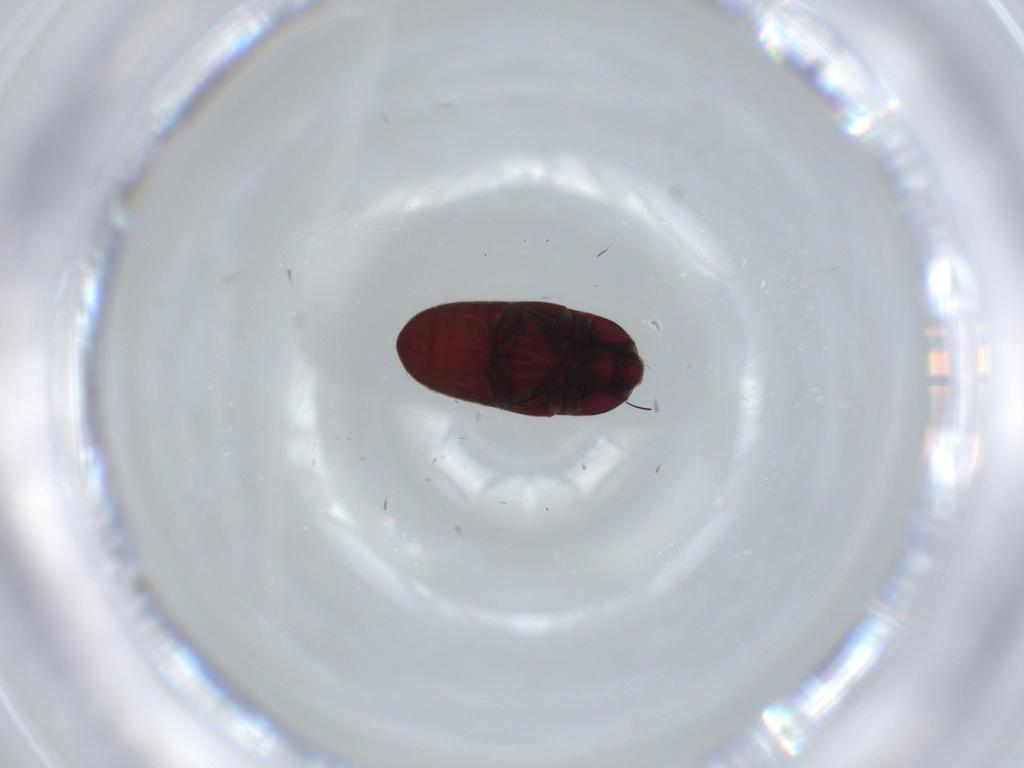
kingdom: Animalia
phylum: Arthropoda
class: Insecta
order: Coleoptera
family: Throscidae
